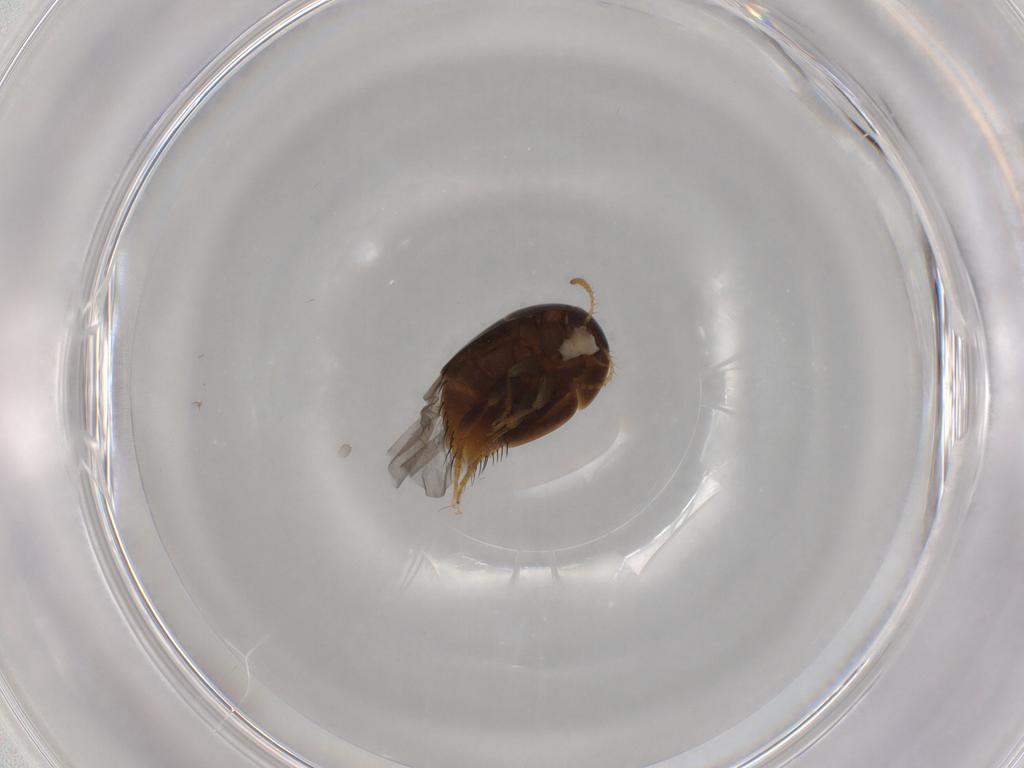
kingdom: Animalia
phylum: Arthropoda
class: Insecta
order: Coleoptera
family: Staphylinidae
